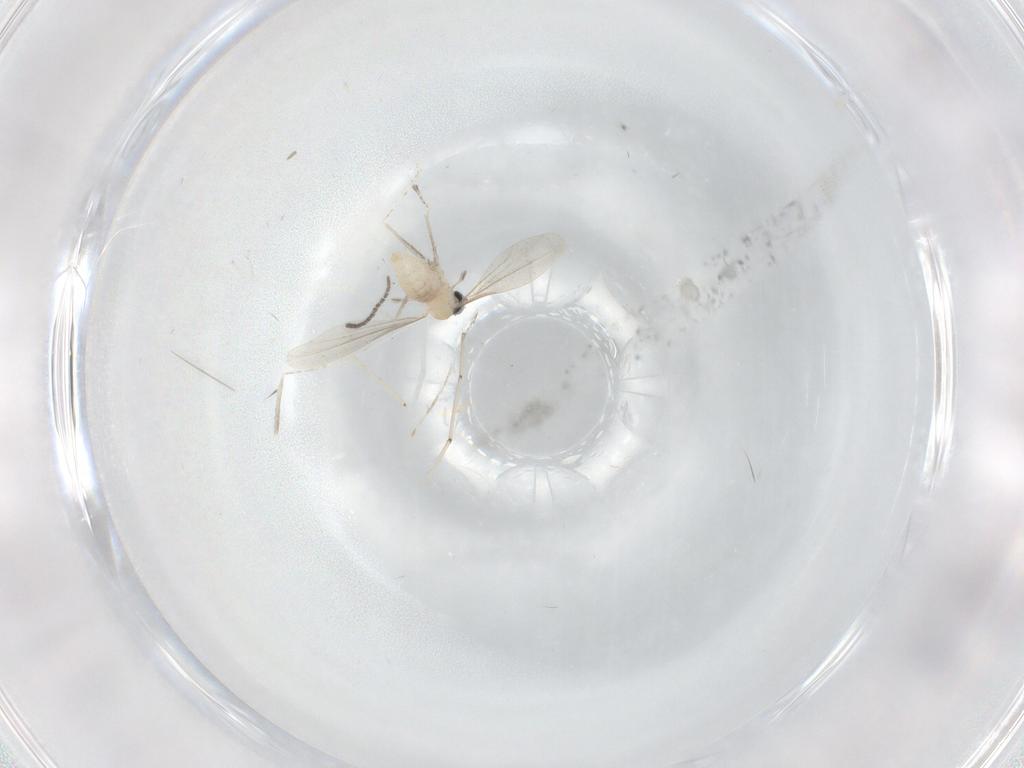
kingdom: Animalia
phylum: Arthropoda
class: Insecta
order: Diptera
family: Cecidomyiidae
